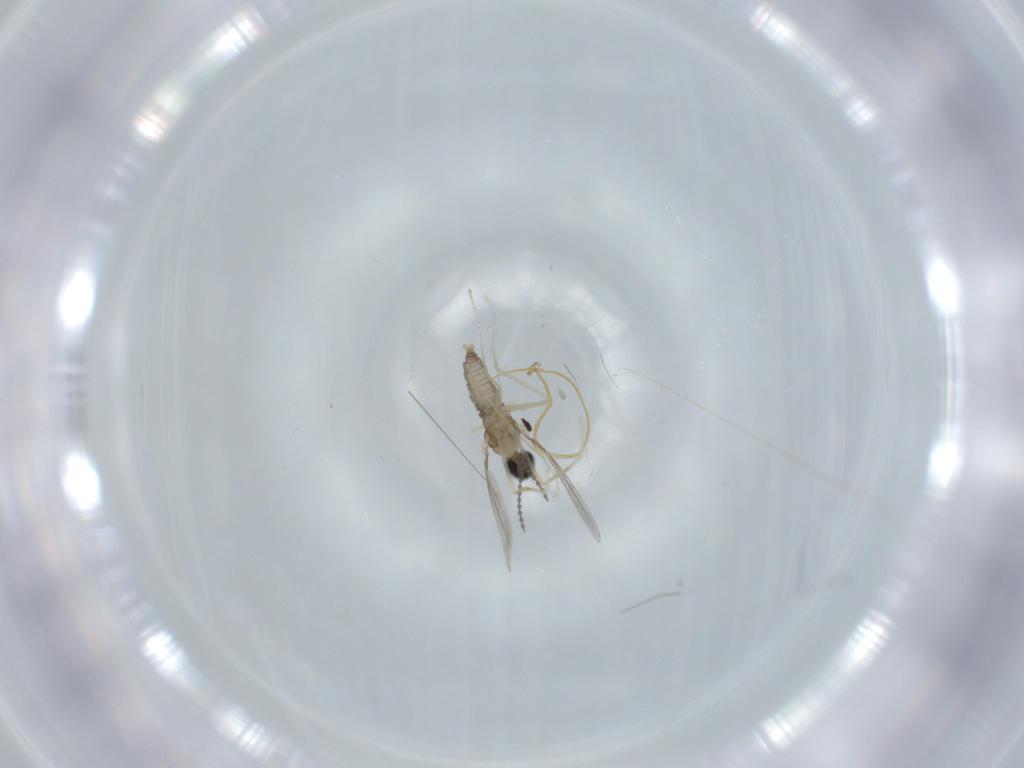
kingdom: Animalia
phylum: Arthropoda
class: Insecta
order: Diptera
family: Cecidomyiidae
